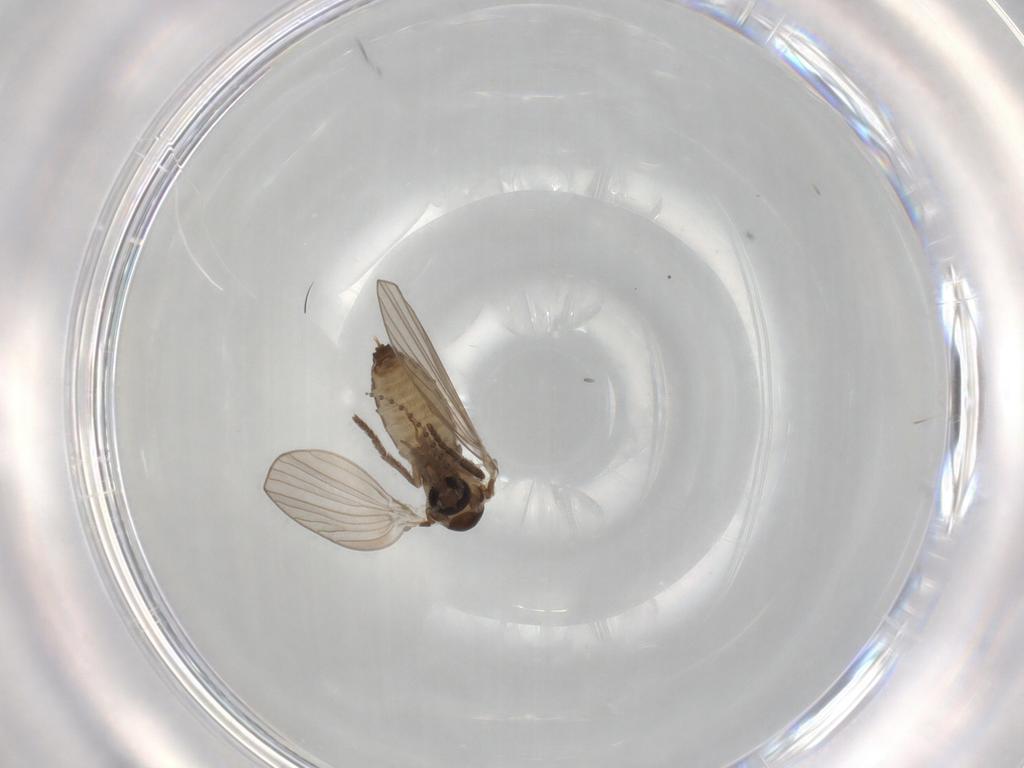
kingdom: Animalia
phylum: Arthropoda
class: Insecta
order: Diptera
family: Psychodidae
